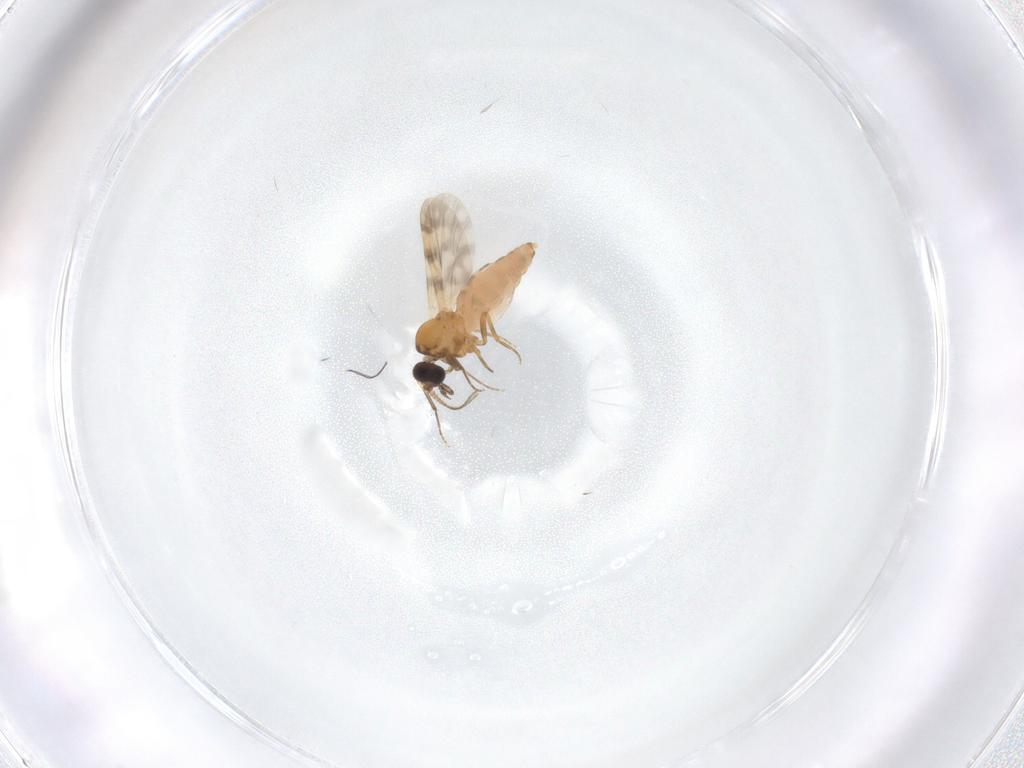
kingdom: Animalia
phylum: Arthropoda
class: Insecta
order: Diptera
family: Ceratopogonidae
